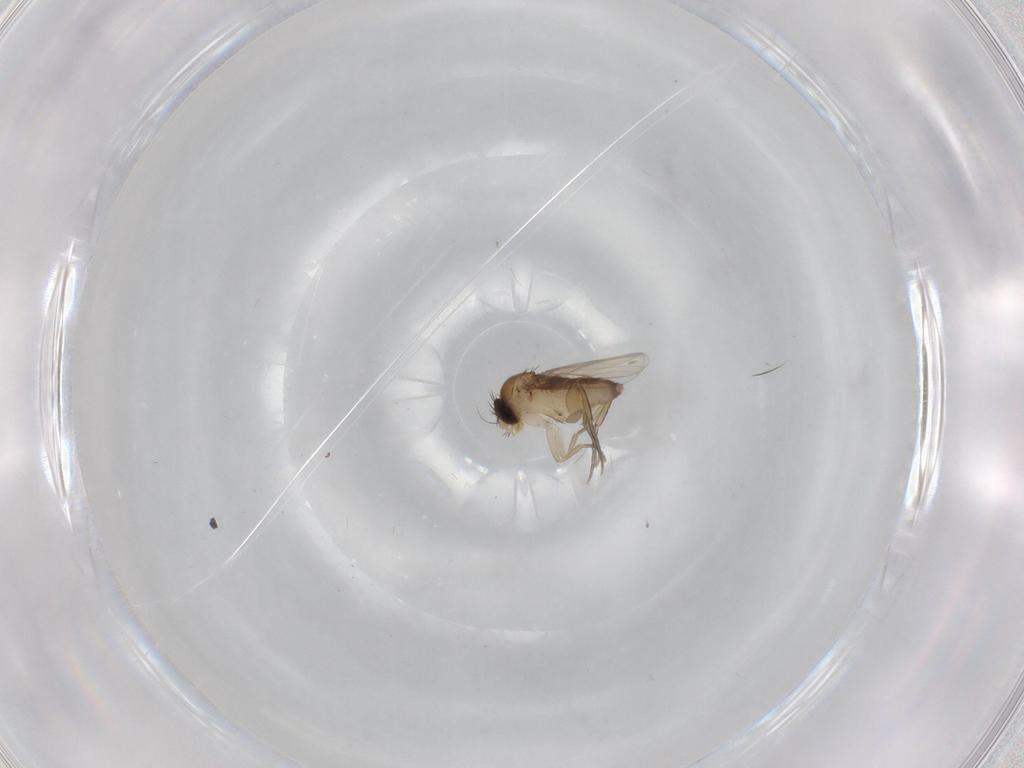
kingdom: Animalia
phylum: Arthropoda
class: Insecta
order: Diptera
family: Phoridae
